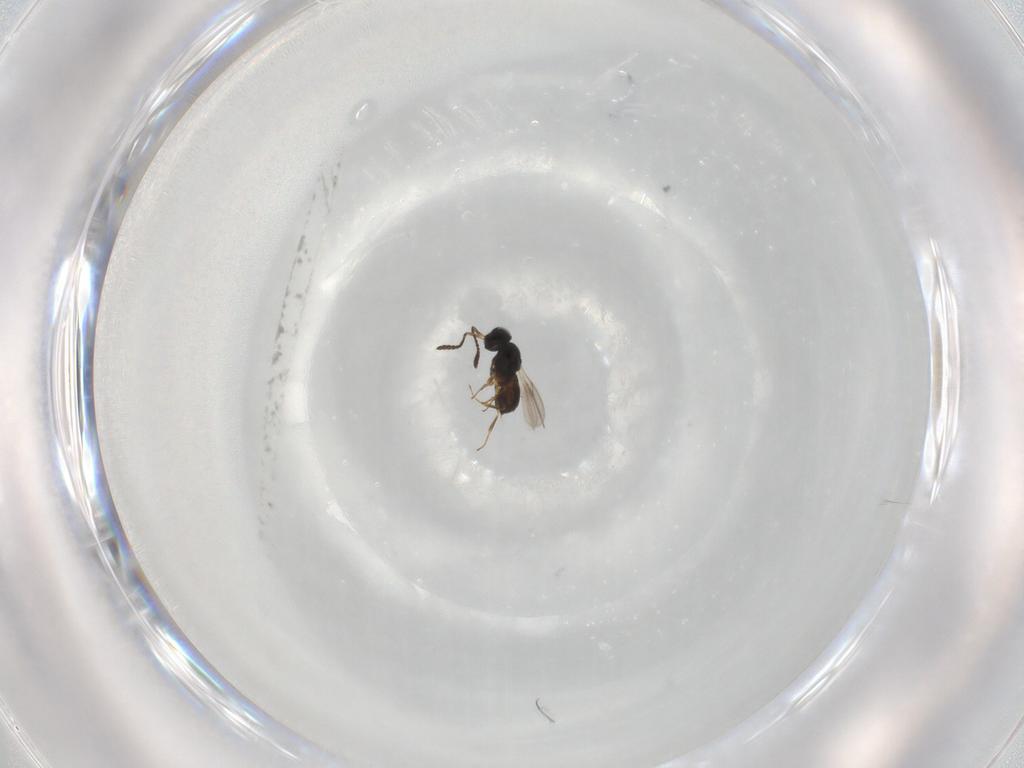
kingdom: Animalia
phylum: Arthropoda
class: Insecta
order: Hymenoptera
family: Scelionidae
